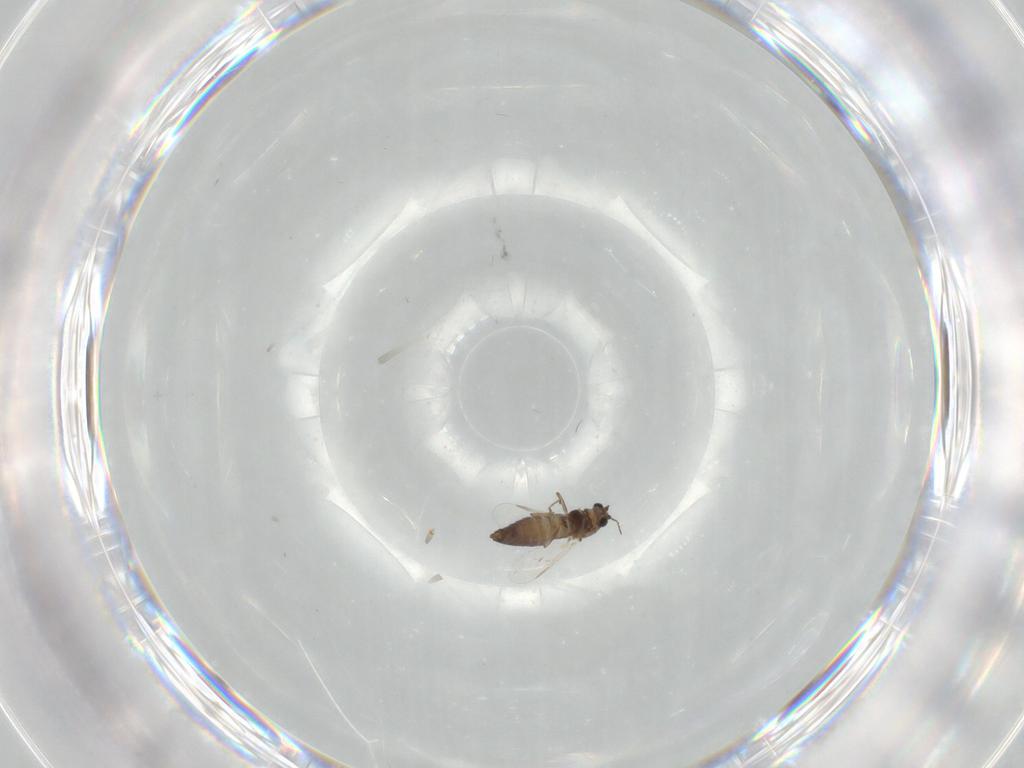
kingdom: Animalia
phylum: Arthropoda
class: Insecta
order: Diptera
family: Chironomidae
